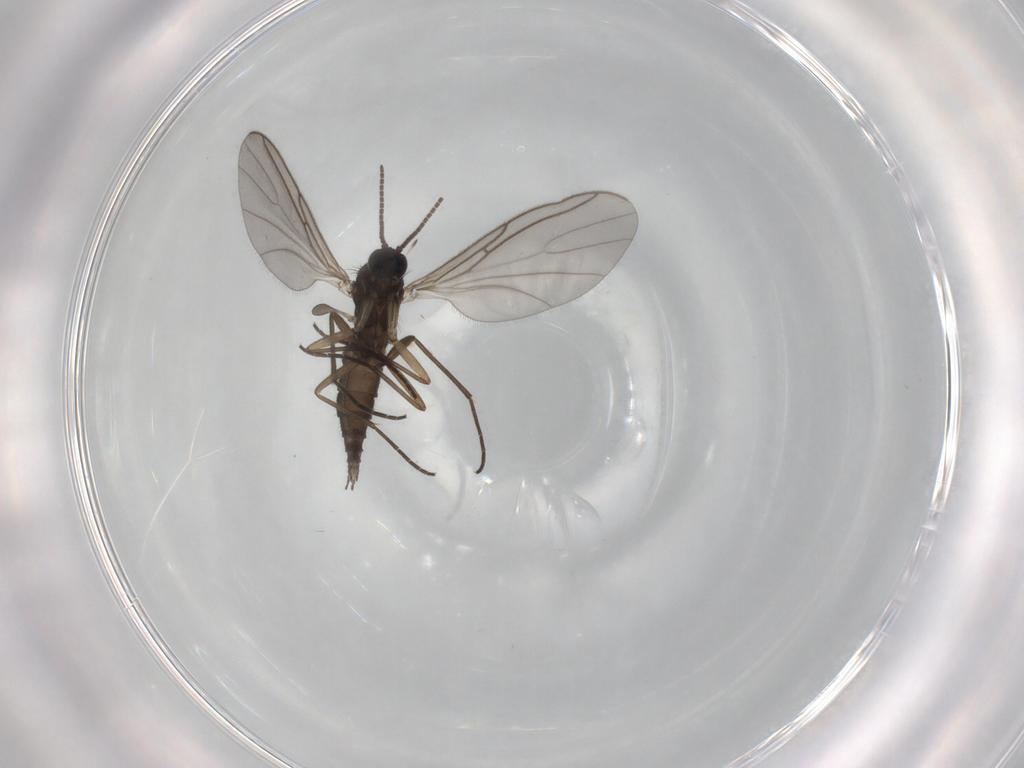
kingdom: Animalia
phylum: Arthropoda
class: Insecta
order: Diptera
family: Sciaridae
